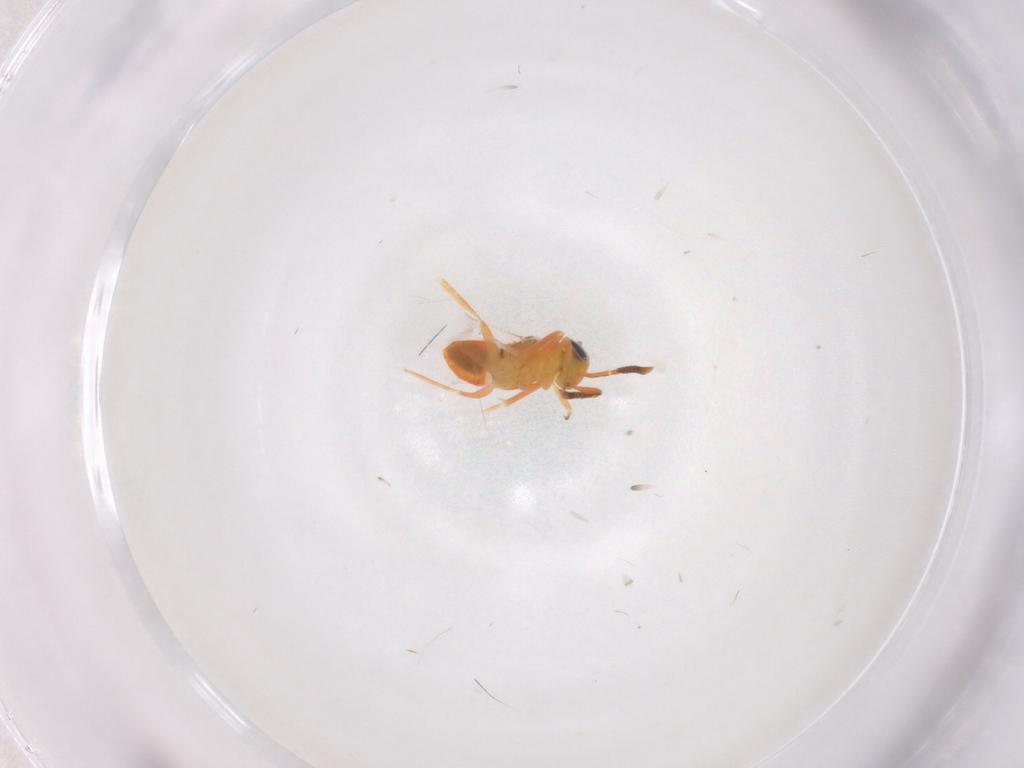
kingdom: Animalia
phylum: Arthropoda
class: Insecta
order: Hymenoptera
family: Encyrtidae
